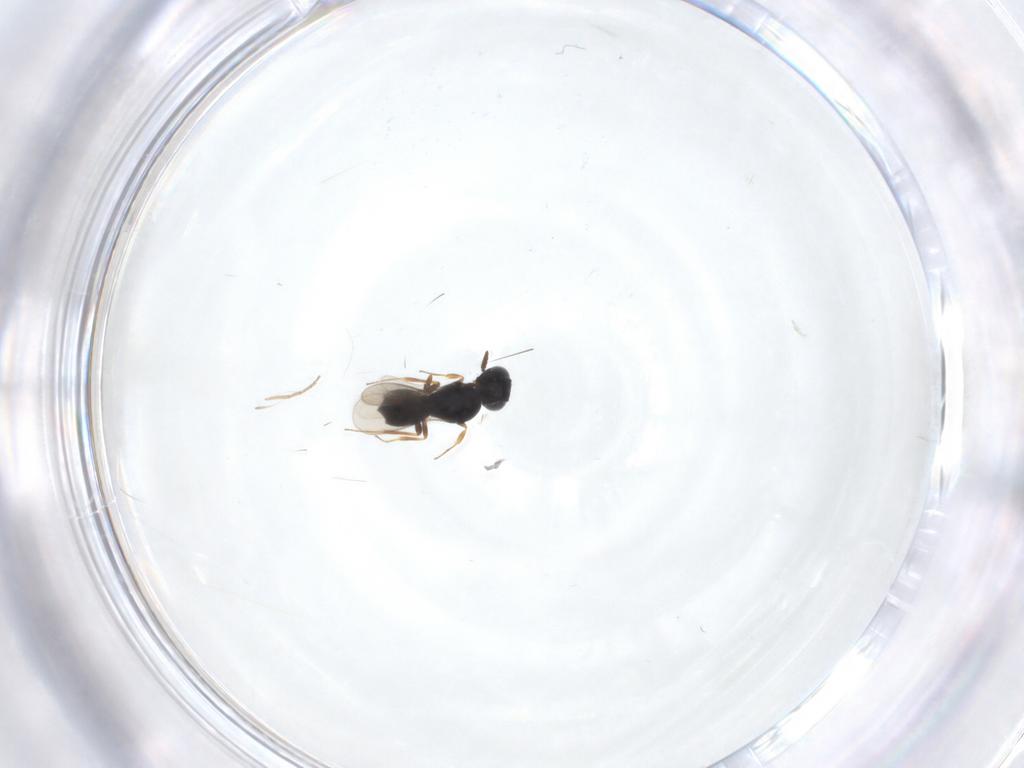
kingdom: Animalia
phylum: Arthropoda
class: Insecta
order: Hymenoptera
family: Scelionidae
